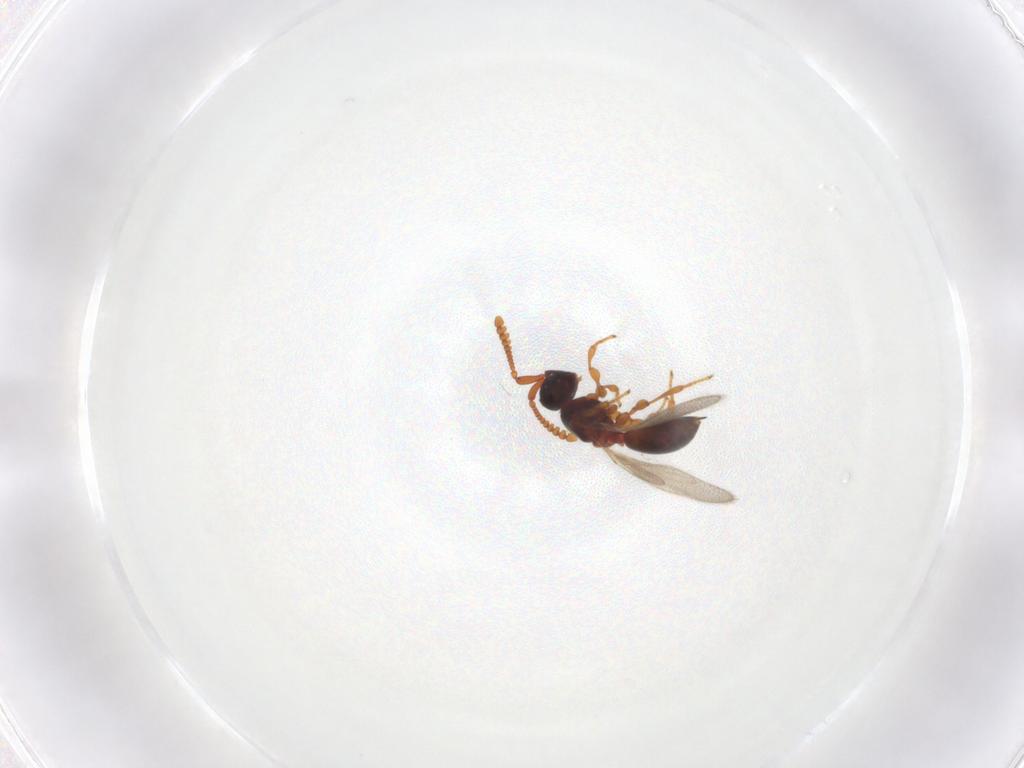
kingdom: Animalia
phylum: Arthropoda
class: Insecta
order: Hymenoptera
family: Diapriidae
